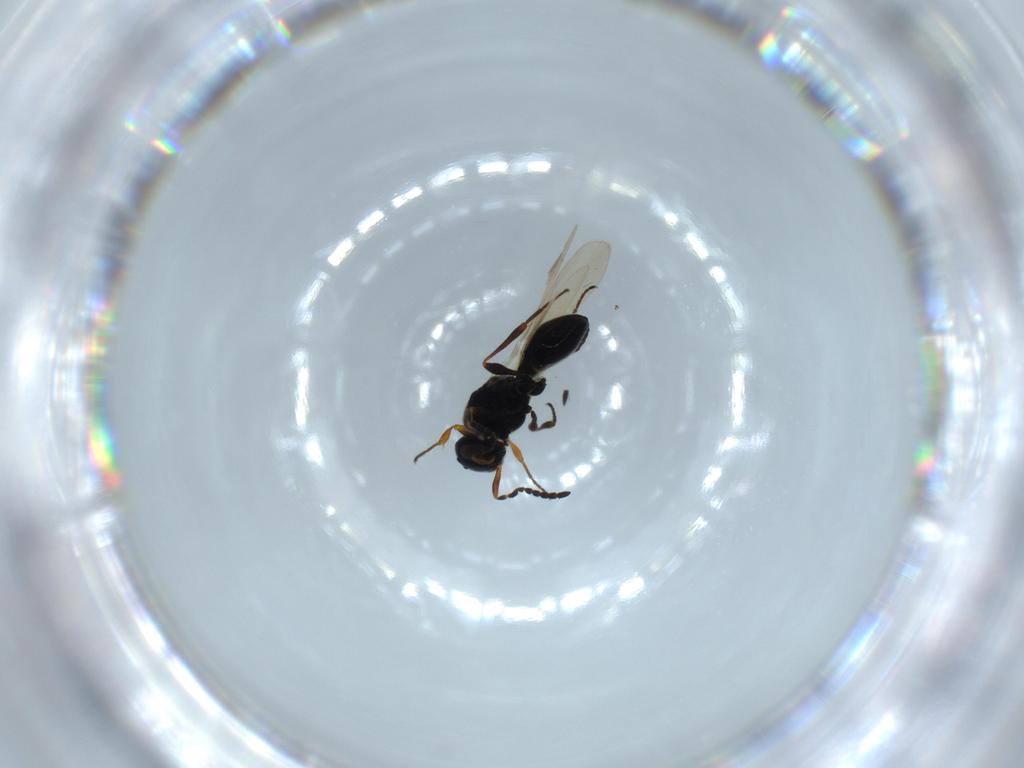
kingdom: Animalia
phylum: Arthropoda
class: Insecta
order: Hymenoptera
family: Platygastridae
